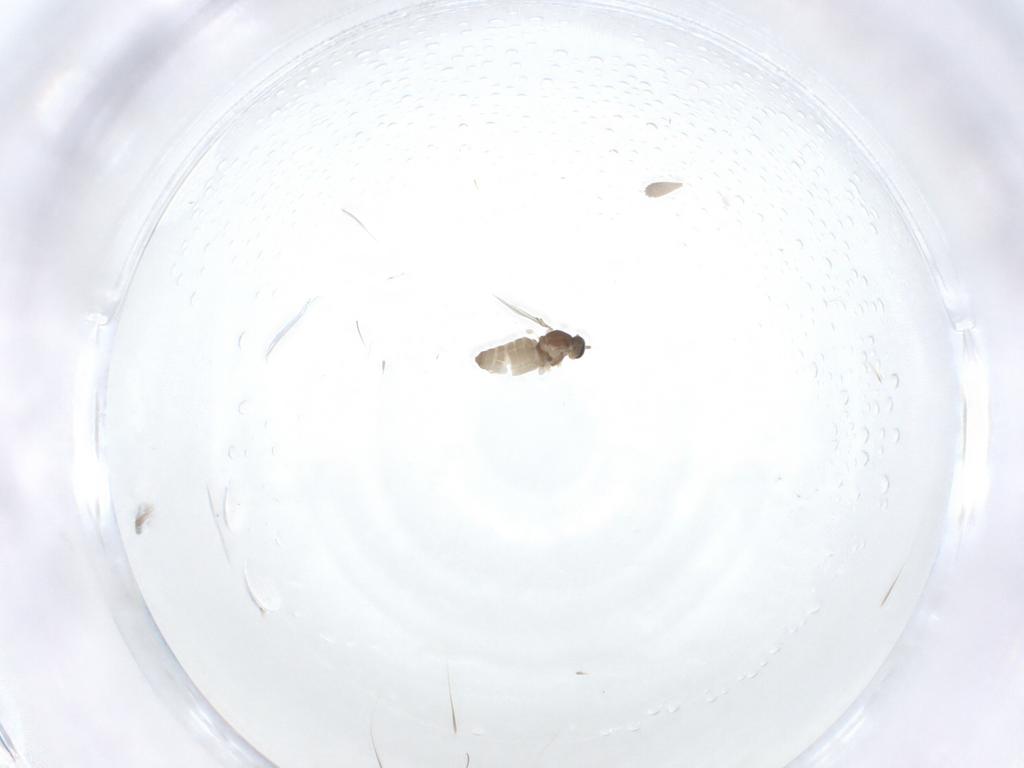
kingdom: Animalia
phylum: Arthropoda
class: Insecta
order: Diptera
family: Cecidomyiidae
